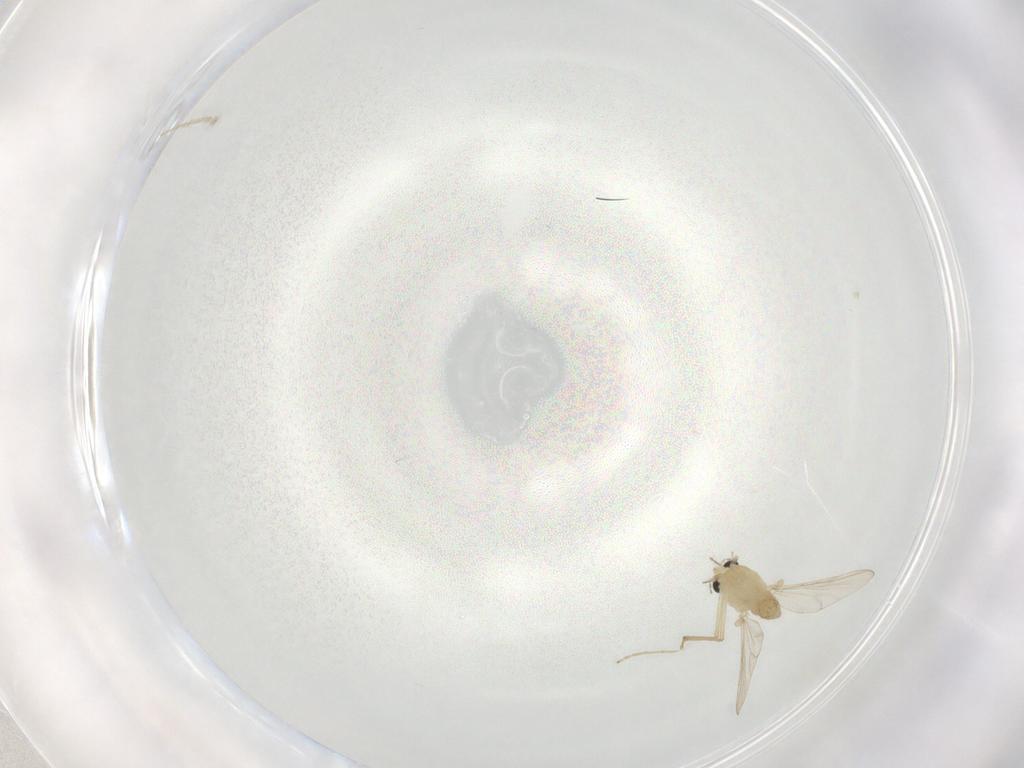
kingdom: Animalia
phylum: Arthropoda
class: Insecta
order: Diptera
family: Chironomidae
